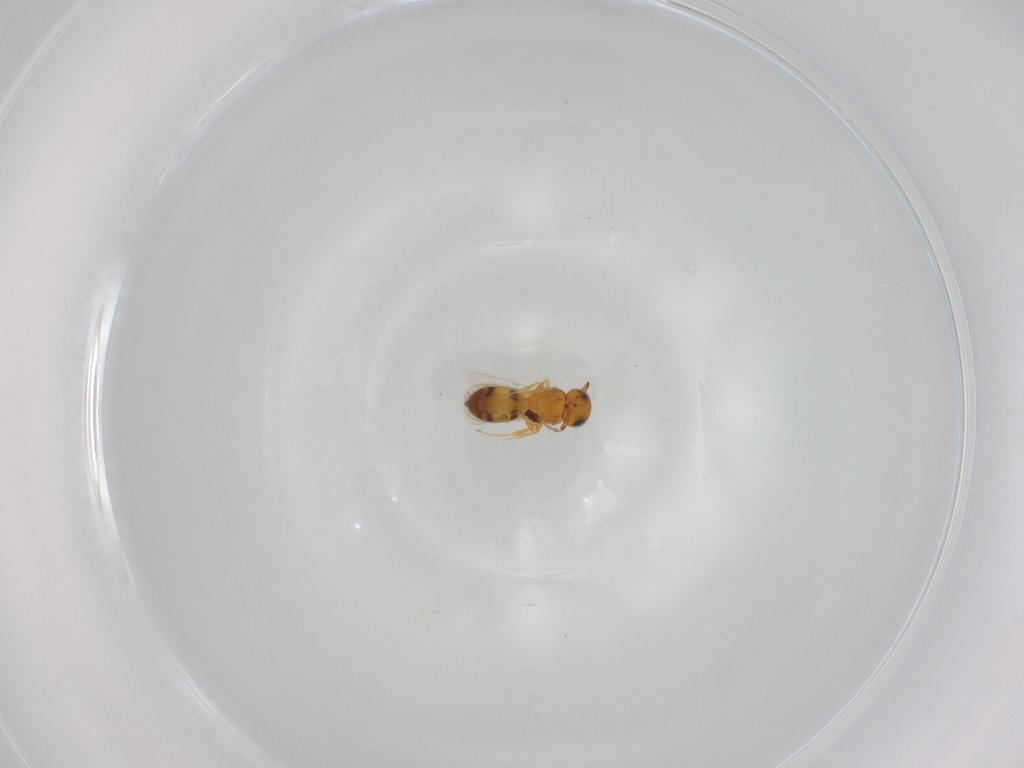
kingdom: Animalia
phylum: Arthropoda
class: Insecta
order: Hymenoptera
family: Scelionidae
